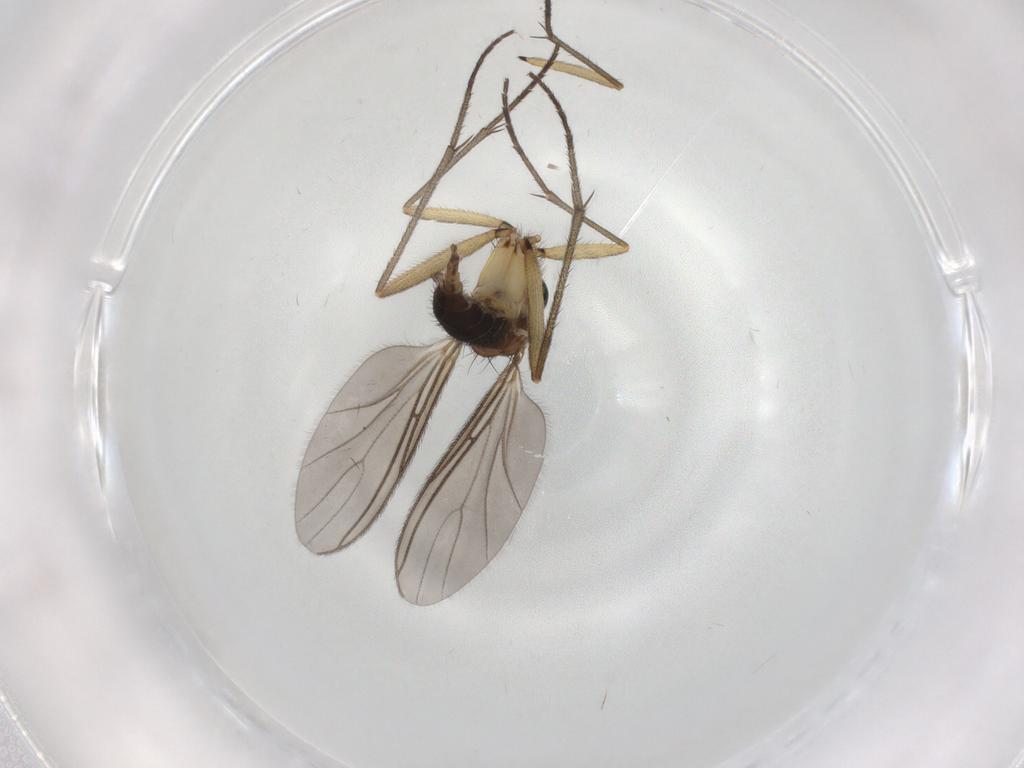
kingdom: Animalia
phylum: Arthropoda
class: Insecta
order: Diptera
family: Sciaridae
